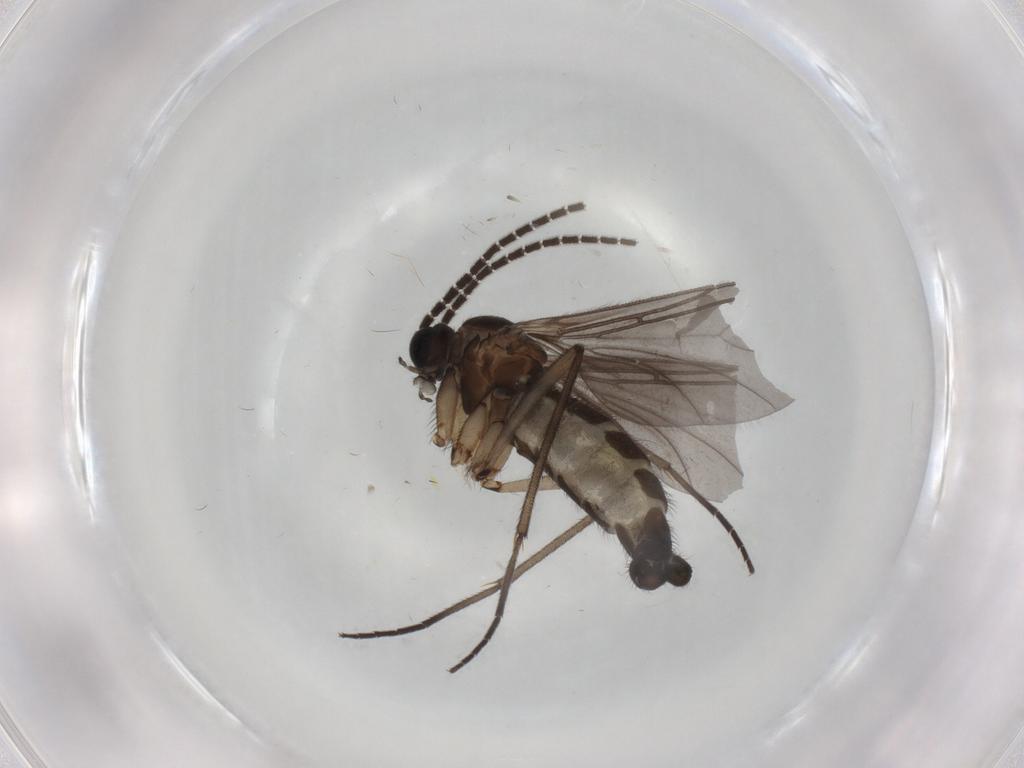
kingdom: Animalia
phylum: Arthropoda
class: Insecta
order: Diptera
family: Sciaridae
